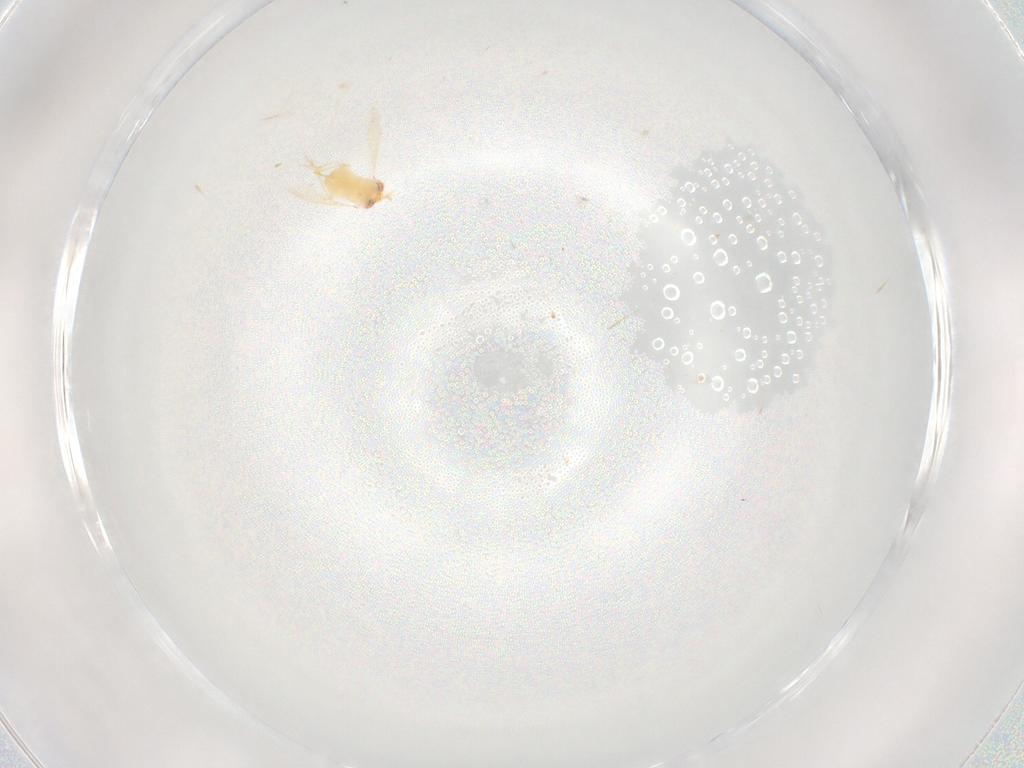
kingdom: Animalia
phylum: Arthropoda
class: Insecta
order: Hymenoptera
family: Aphelinidae
